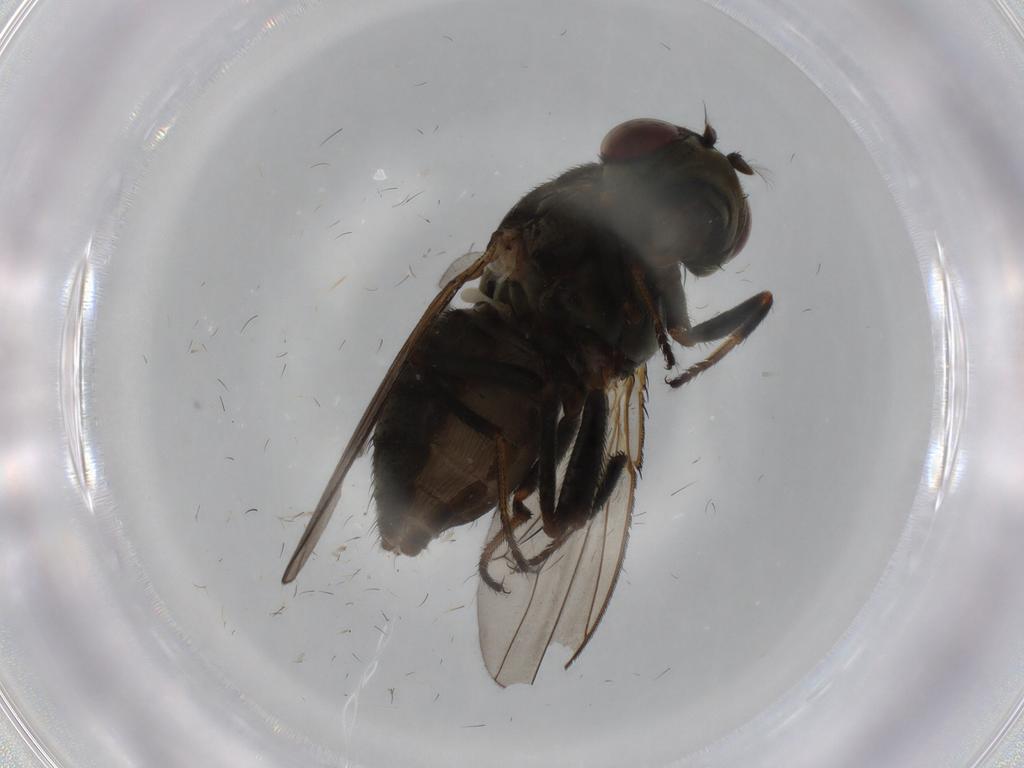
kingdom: Animalia
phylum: Arthropoda
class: Insecta
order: Diptera
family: Ephydridae
